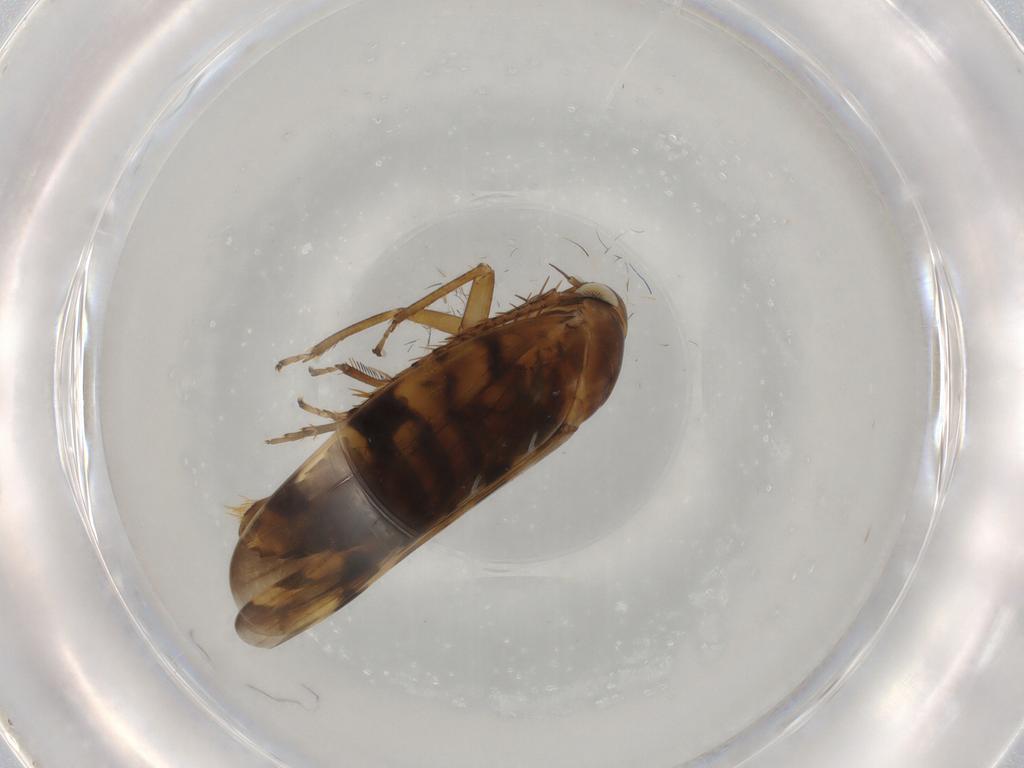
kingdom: Animalia
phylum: Arthropoda
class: Insecta
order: Hemiptera
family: Cicadellidae
